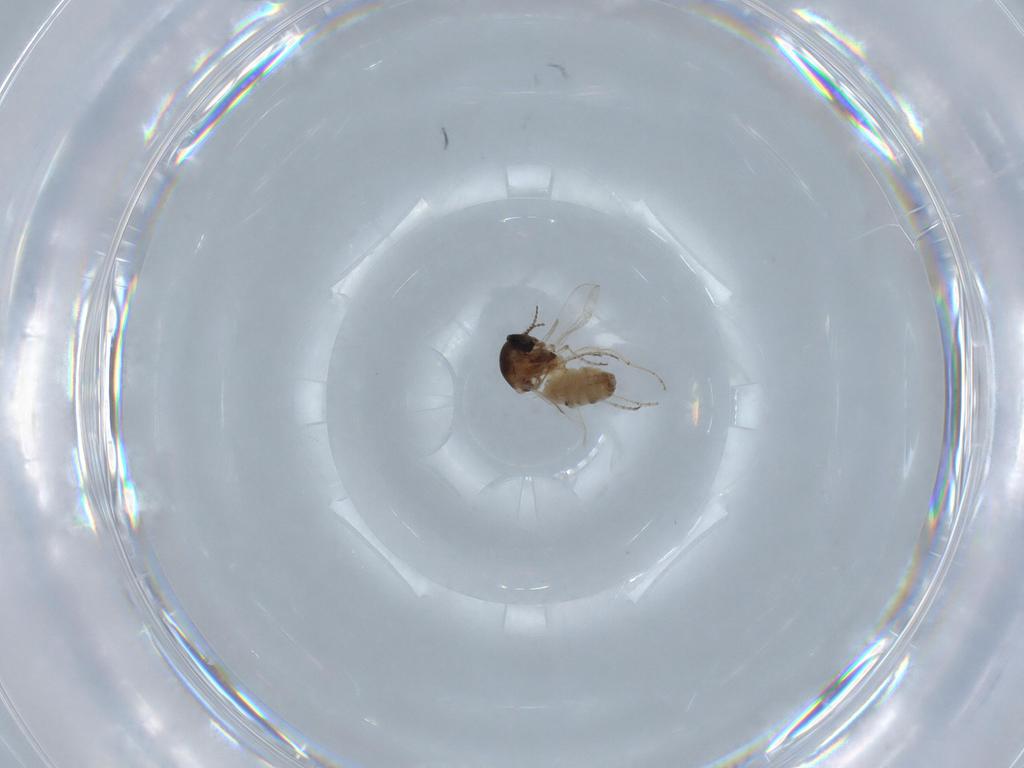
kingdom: Animalia
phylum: Arthropoda
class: Insecta
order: Diptera
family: Ceratopogonidae
